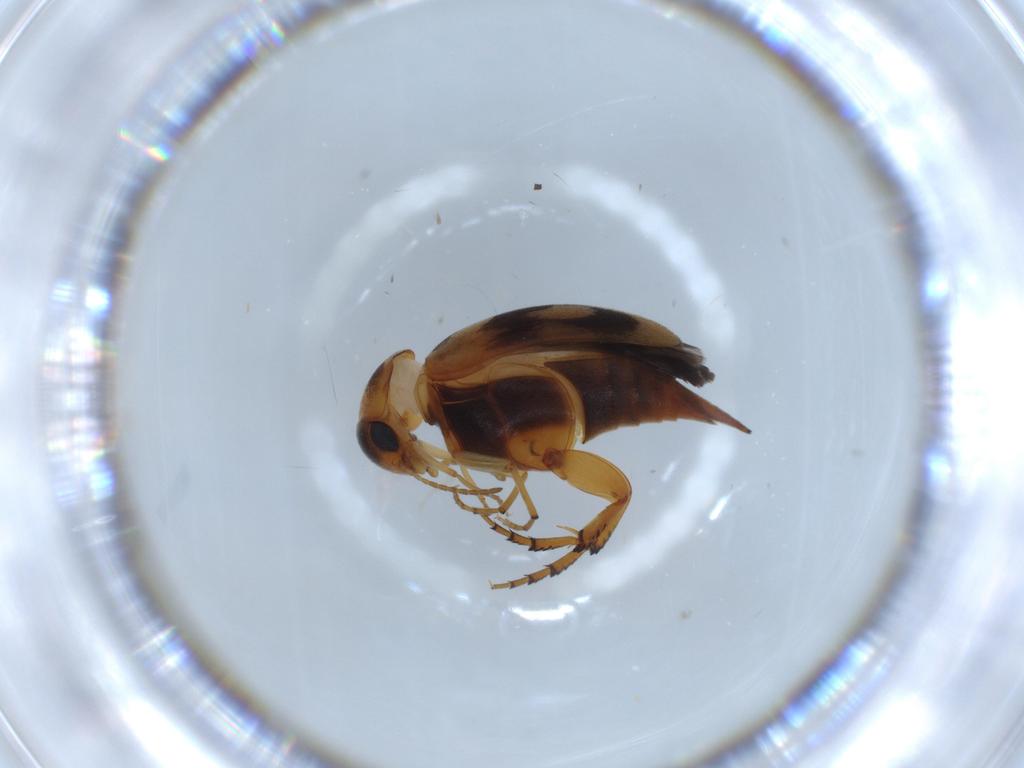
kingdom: Animalia
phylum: Arthropoda
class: Insecta
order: Coleoptera
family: Mordellidae
